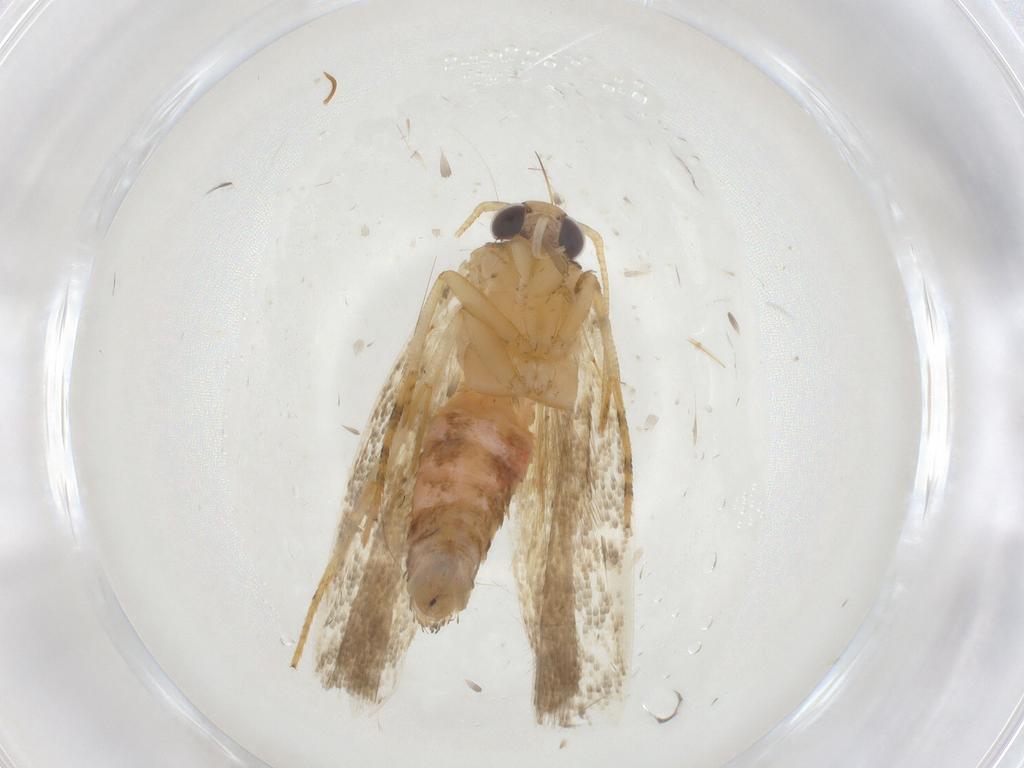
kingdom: Animalia
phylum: Arthropoda
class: Insecta
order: Lepidoptera
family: Gelechiidae
